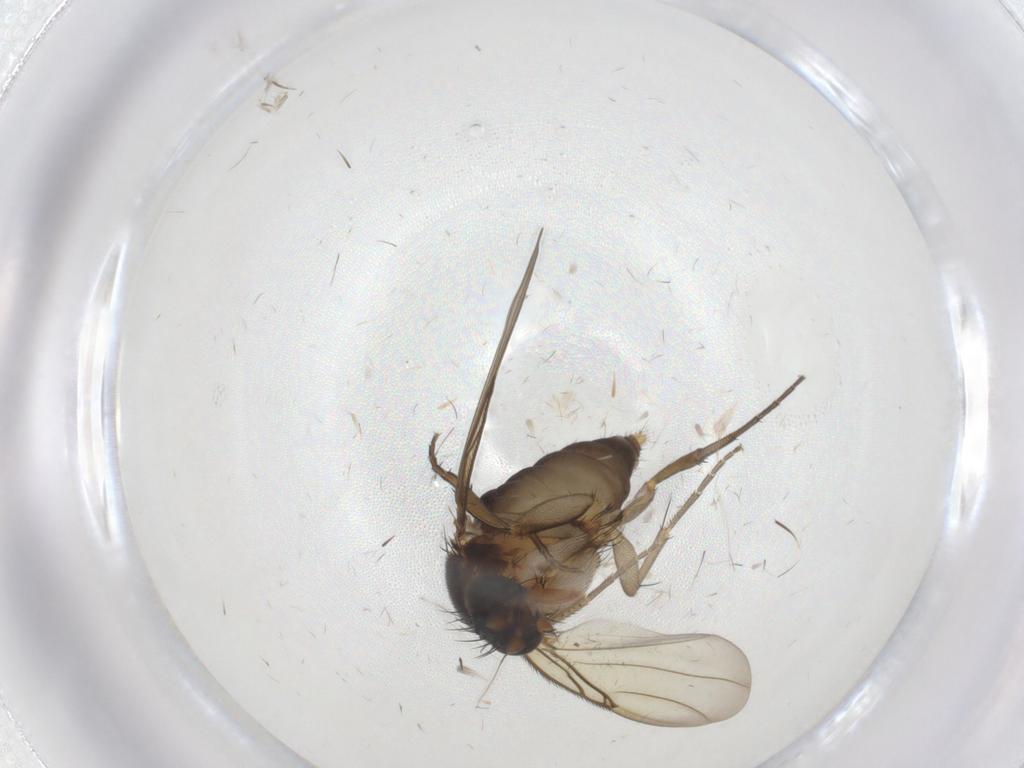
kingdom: Animalia
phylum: Arthropoda
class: Insecta
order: Diptera
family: Phoridae
